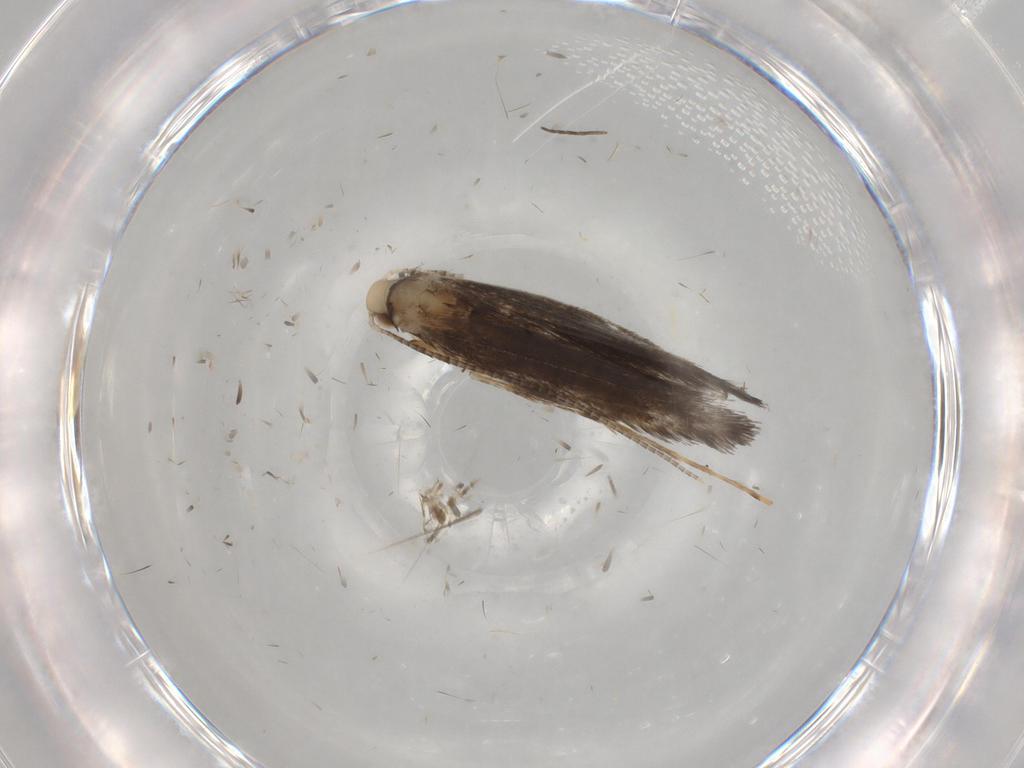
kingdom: Animalia
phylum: Arthropoda
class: Insecta
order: Lepidoptera
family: Gracillariidae
